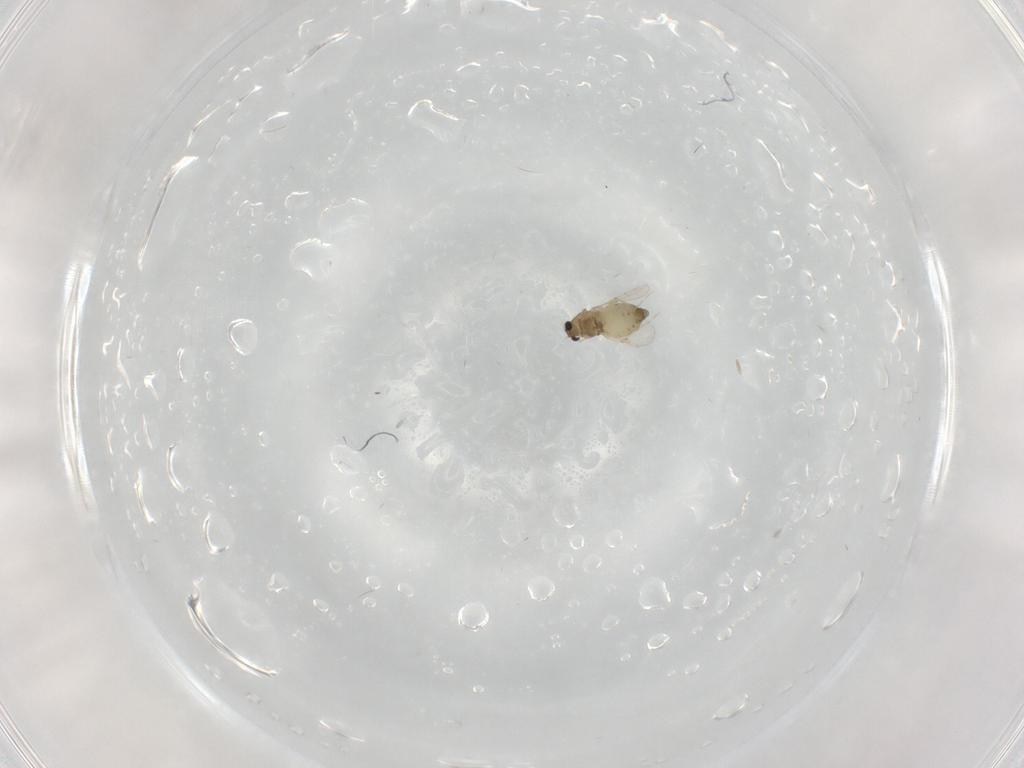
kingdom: Animalia
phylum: Arthropoda
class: Insecta
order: Diptera
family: Chironomidae
